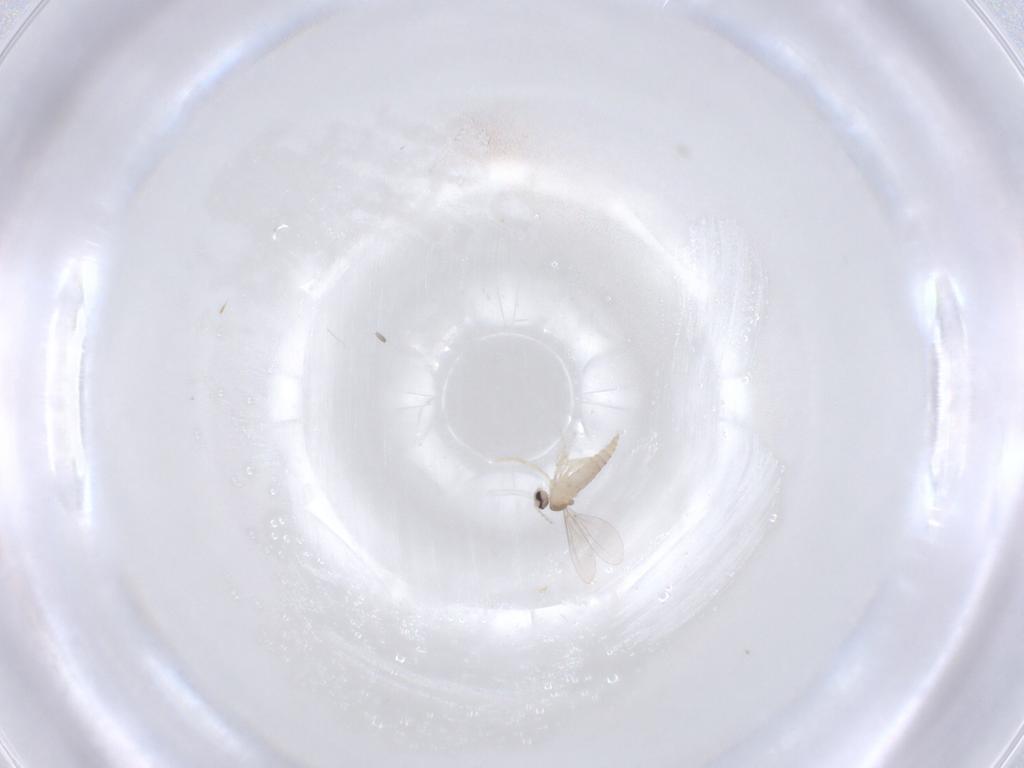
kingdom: Animalia
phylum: Arthropoda
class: Insecta
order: Diptera
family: Cecidomyiidae
